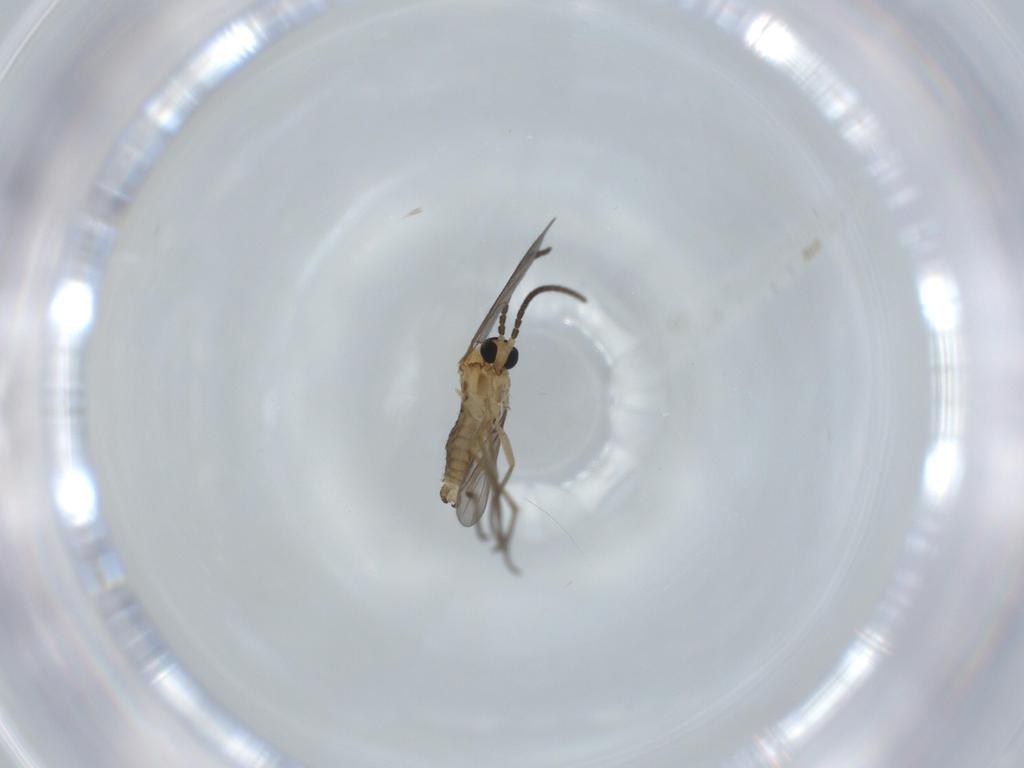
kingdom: Animalia
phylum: Arthropoda
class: Insecta
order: Diptera
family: Sciaridae
